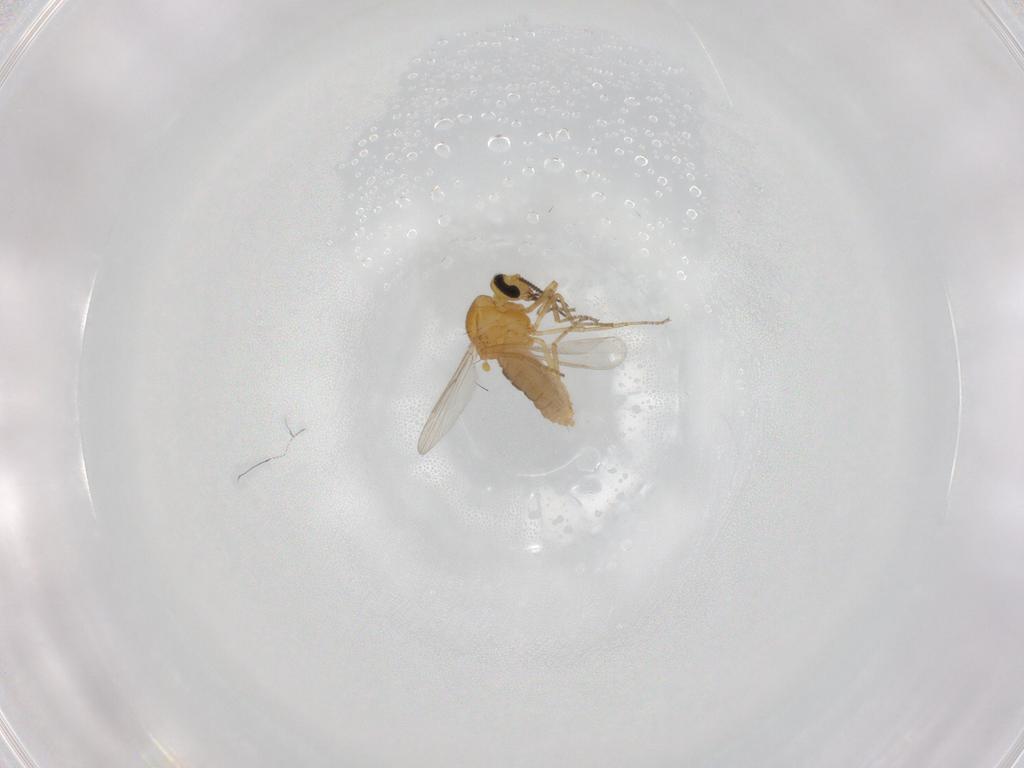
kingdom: Animalia
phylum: Arthropoda
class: Insecta
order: Diptera
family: Ceratopogonidae
